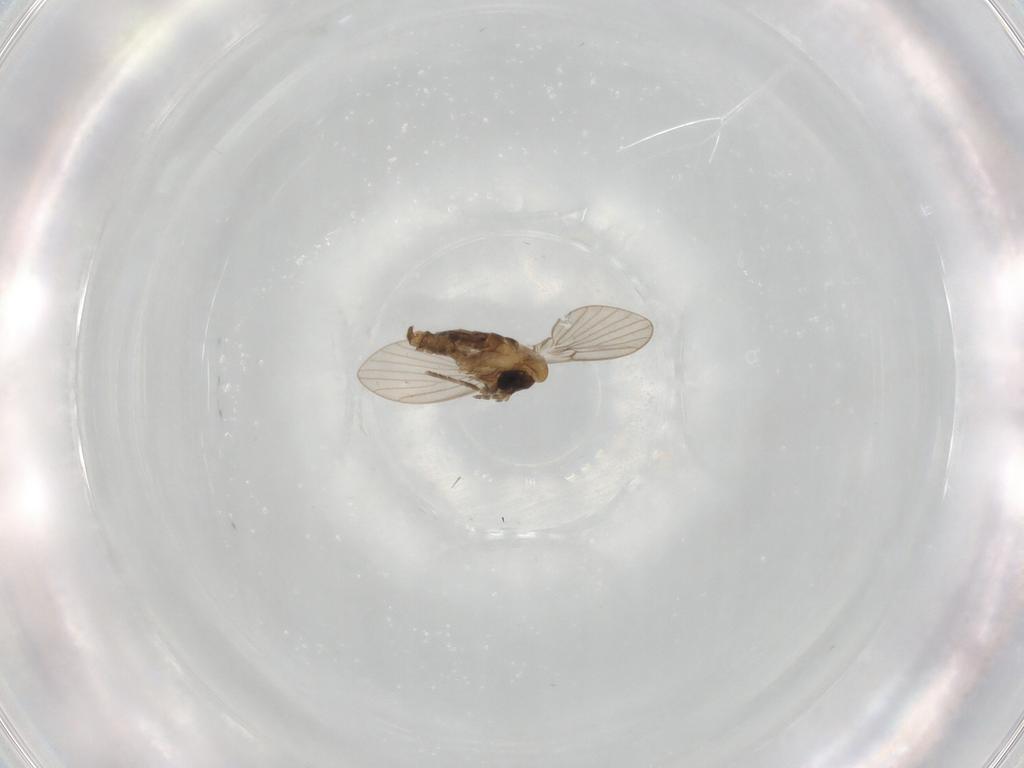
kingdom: Animalia
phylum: Arthropoda
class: Insecta
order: Diptera
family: Psychodidae
